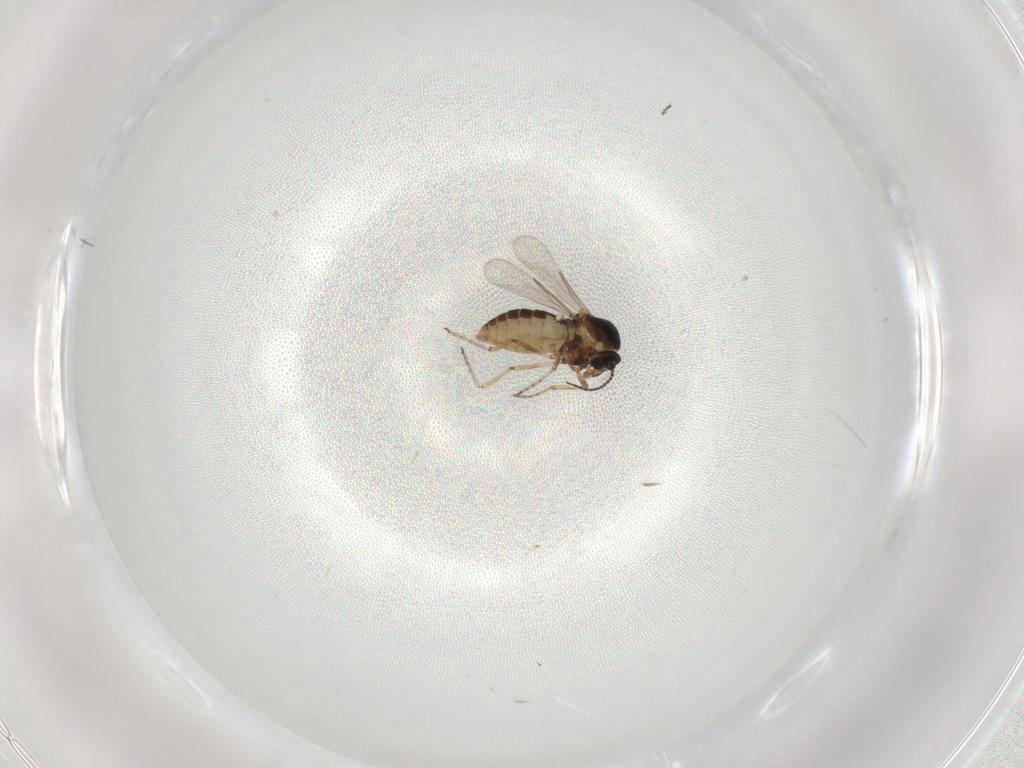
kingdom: Animalia
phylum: Arthropoda
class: Insecta
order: Diptera
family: Ceratopogonidae
